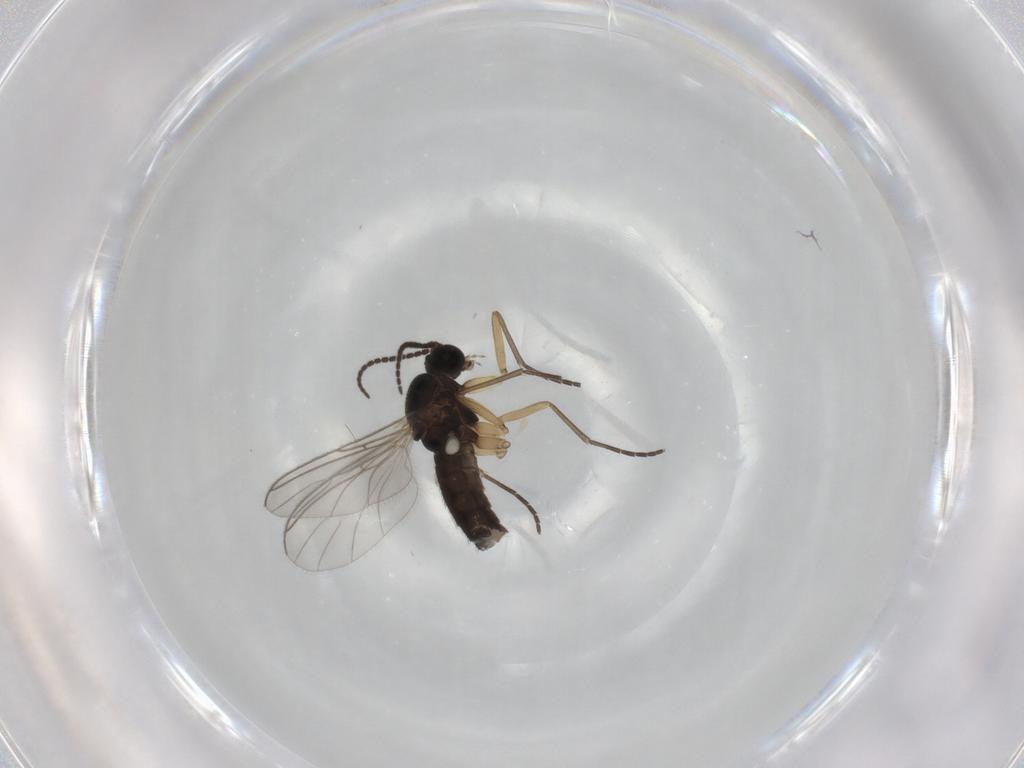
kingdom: Animalia
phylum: Arthropoda
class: Insecta
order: Diptera
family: Sciaridae
